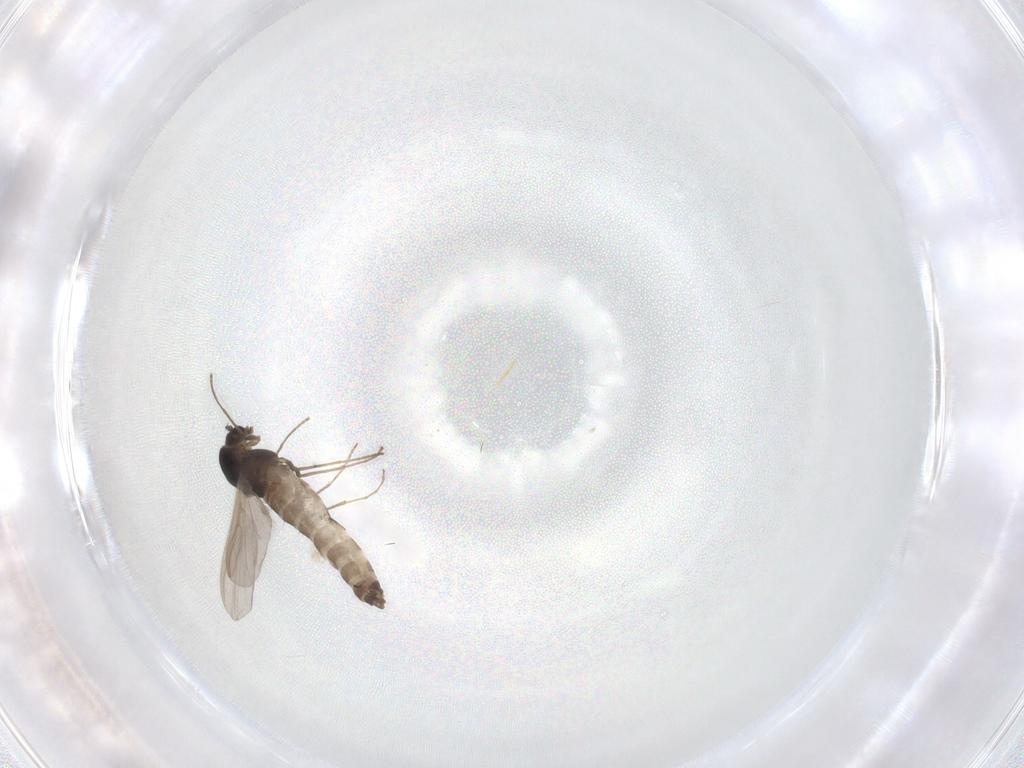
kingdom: Animalia
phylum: Arthropoda
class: Insecta
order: Diptera
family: Chironomidae
